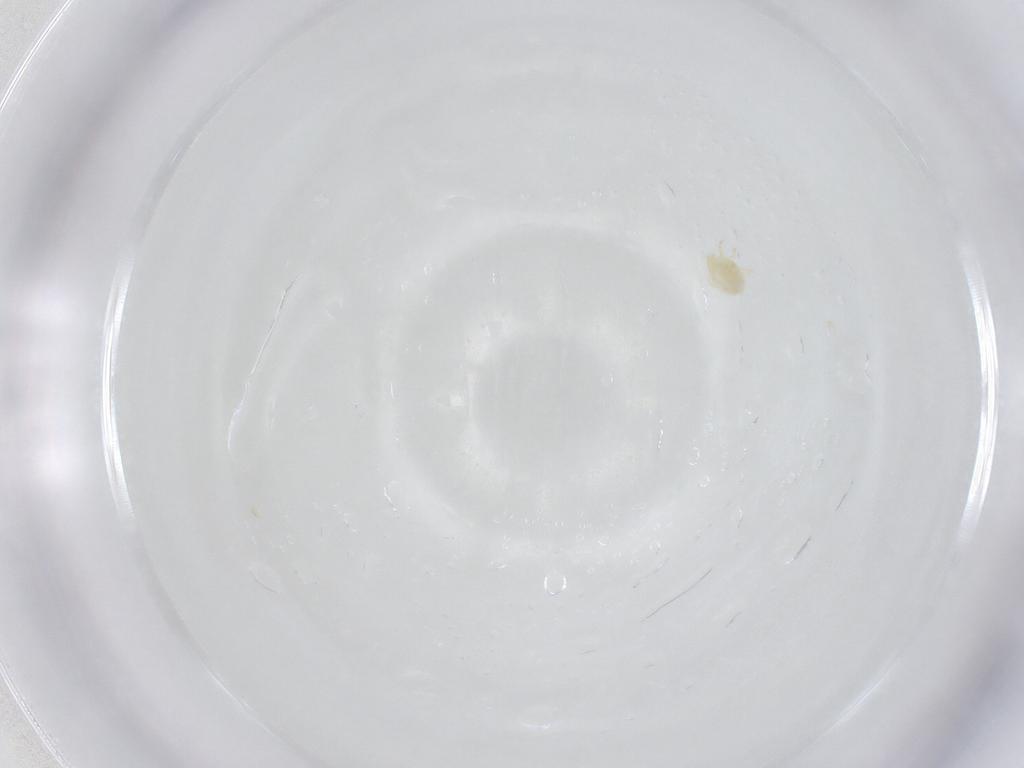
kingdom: Animalia
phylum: Arthropoda
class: Arachnida
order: Trombidiformes
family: Trombidiidae
